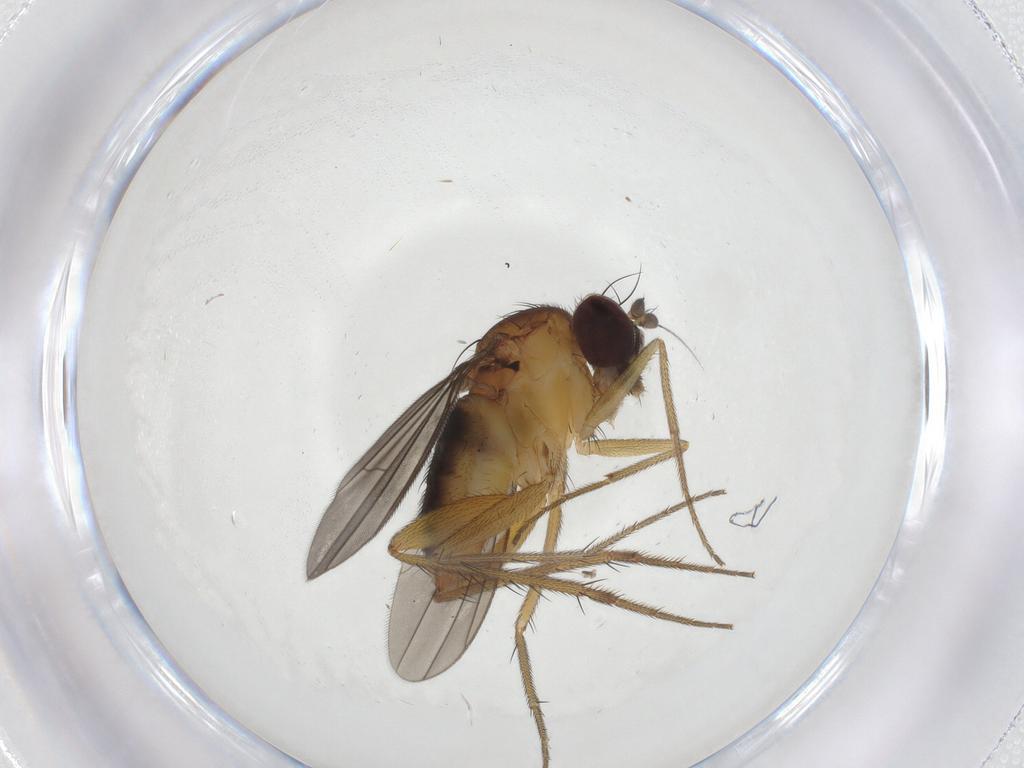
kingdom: Animalia
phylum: Arthropoda
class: Insecta
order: Diptera
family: Dolichopodidae
